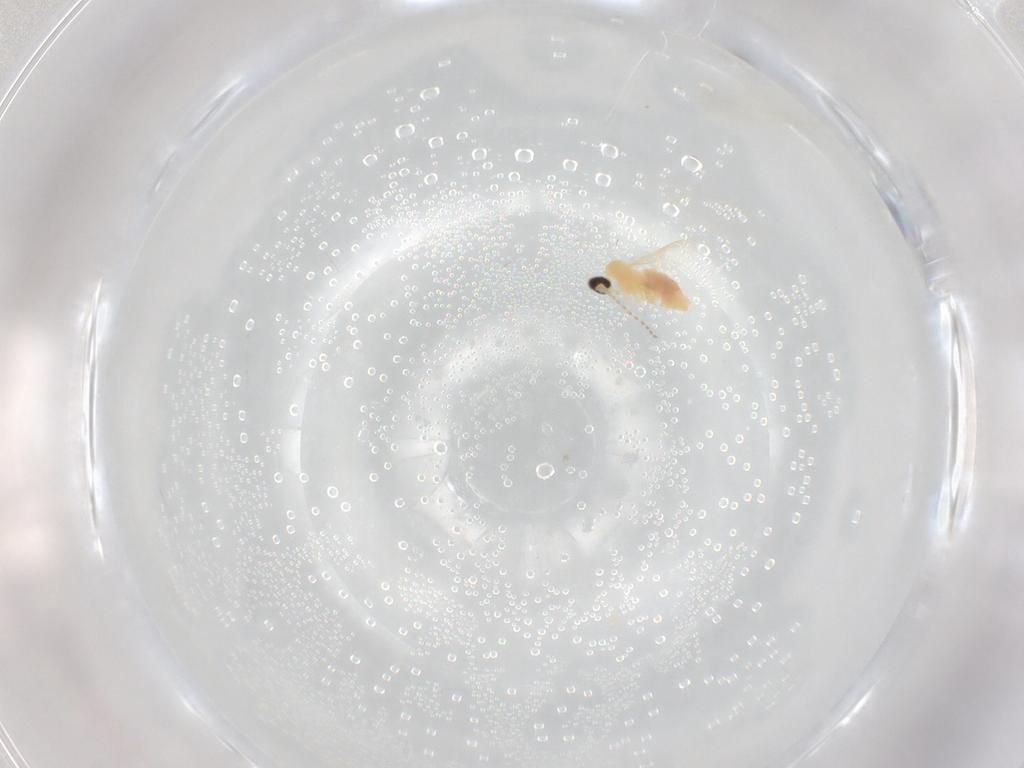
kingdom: Animalia
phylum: Arthropoda
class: Insecta
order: Diptera
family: Cecidomyiidae
